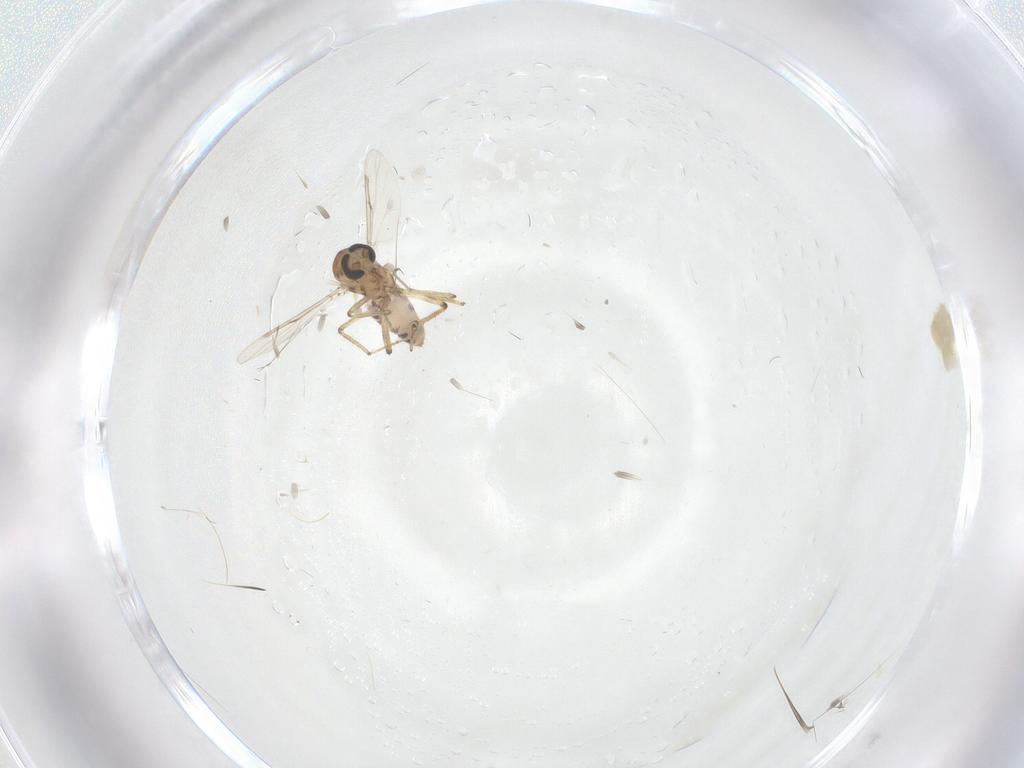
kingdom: Animalia
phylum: Arthropoda
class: Insecta
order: Diptera
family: Ceratopogonidae
